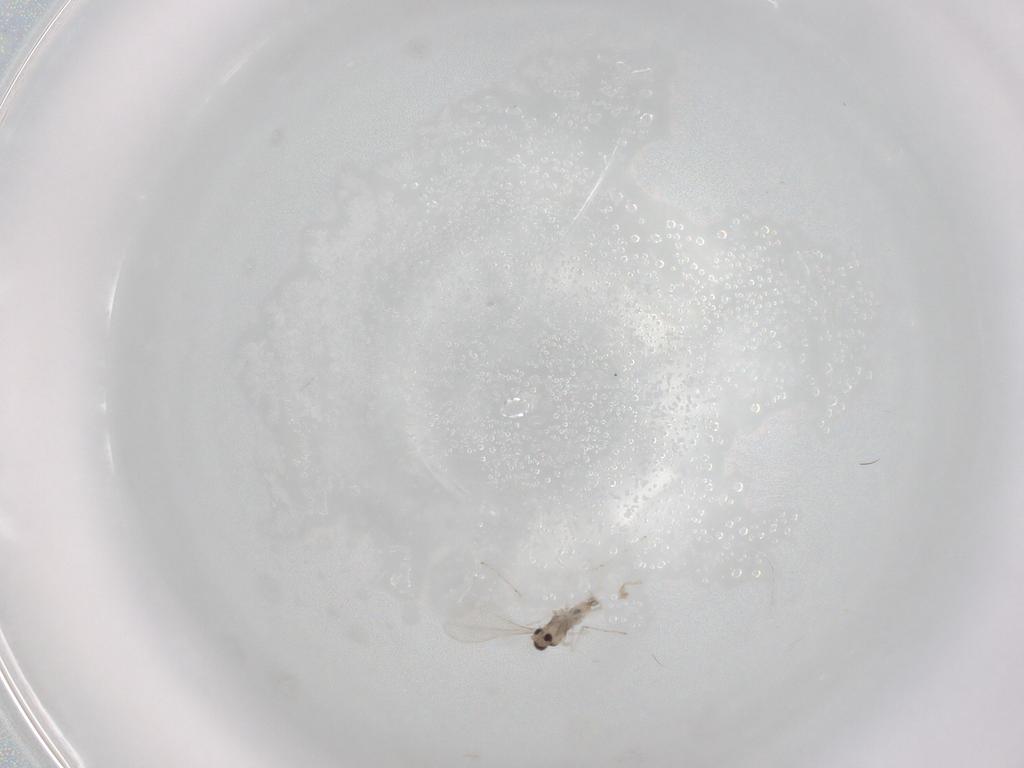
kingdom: Animalia
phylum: Arthropoda
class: Insecta
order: Diptera
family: Cecidomyiidae
